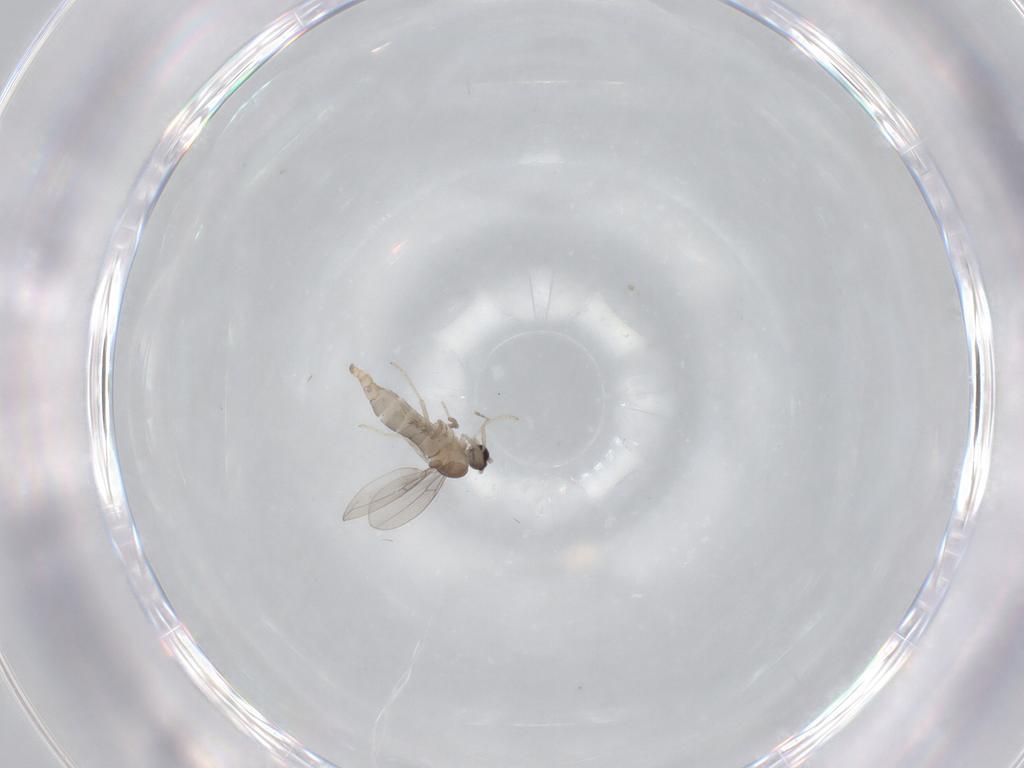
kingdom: Animalia
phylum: Arthropoda
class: Insecta
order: Diptera
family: Cecidomyiidae
